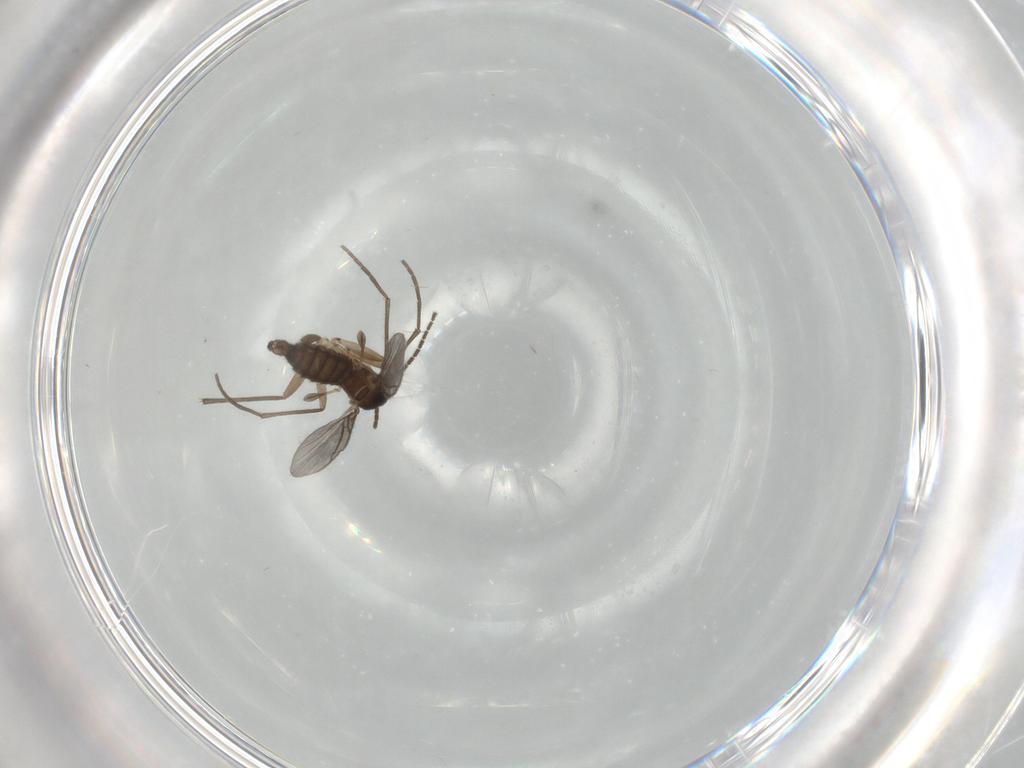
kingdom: Animalia
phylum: Arthropoda
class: Insecta
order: Diptera
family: Sciaridae
